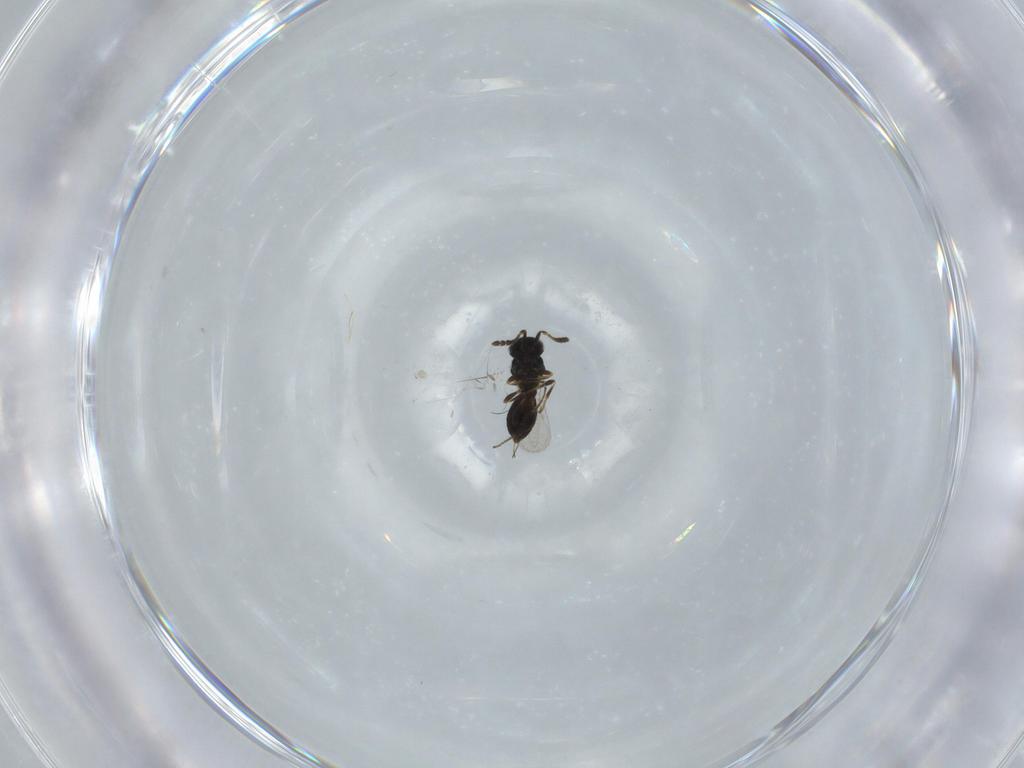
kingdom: Animalia
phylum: Arthropoda
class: Insecta
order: Hymenoptera
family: Platygastridae
